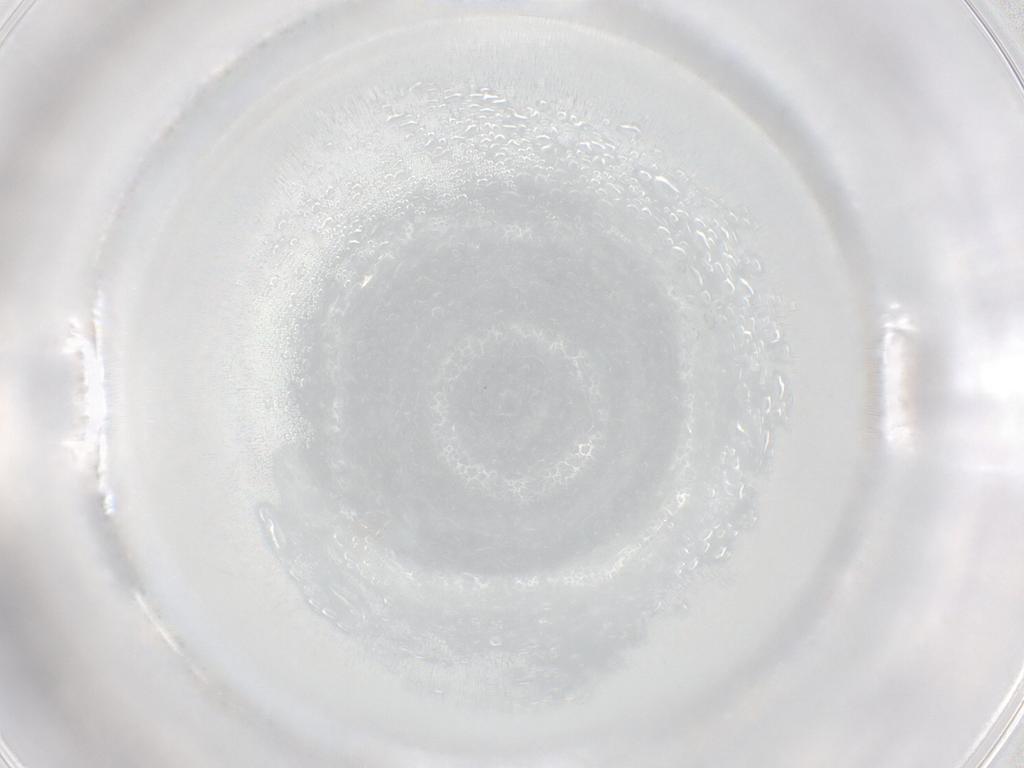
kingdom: Animalia
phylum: Arthropoda
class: Arachnida
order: Trombidiformes
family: Eupodidae
